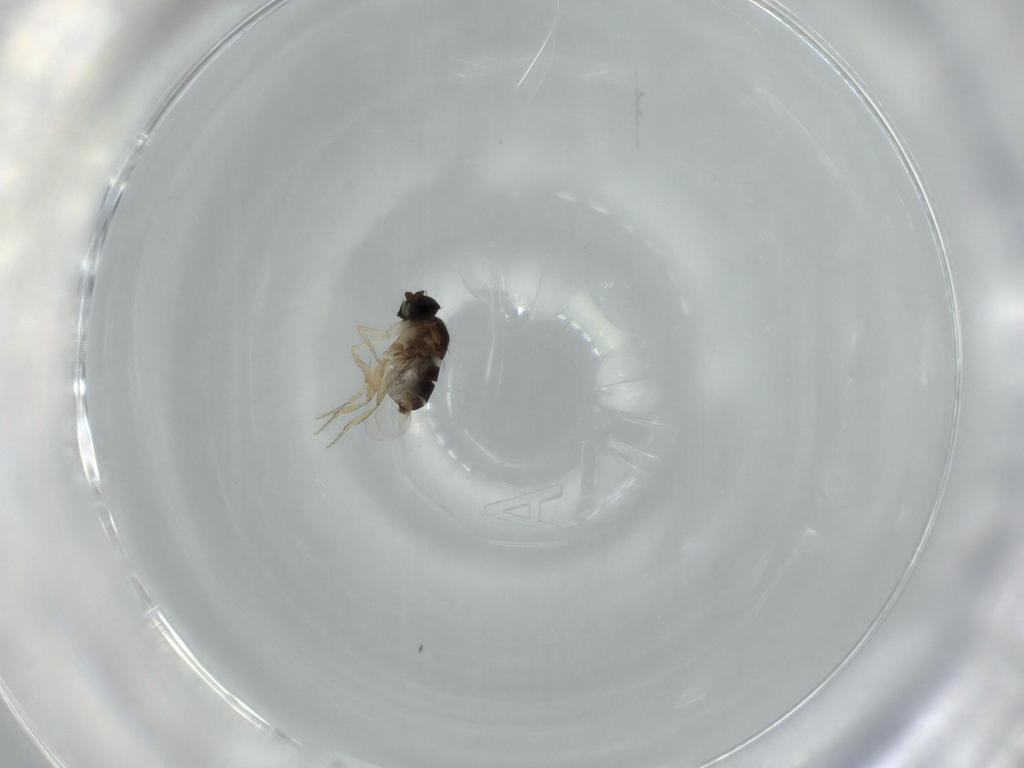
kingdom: Animalia
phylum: Arthropoda
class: Insecta
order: Diptera
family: Phoridae
